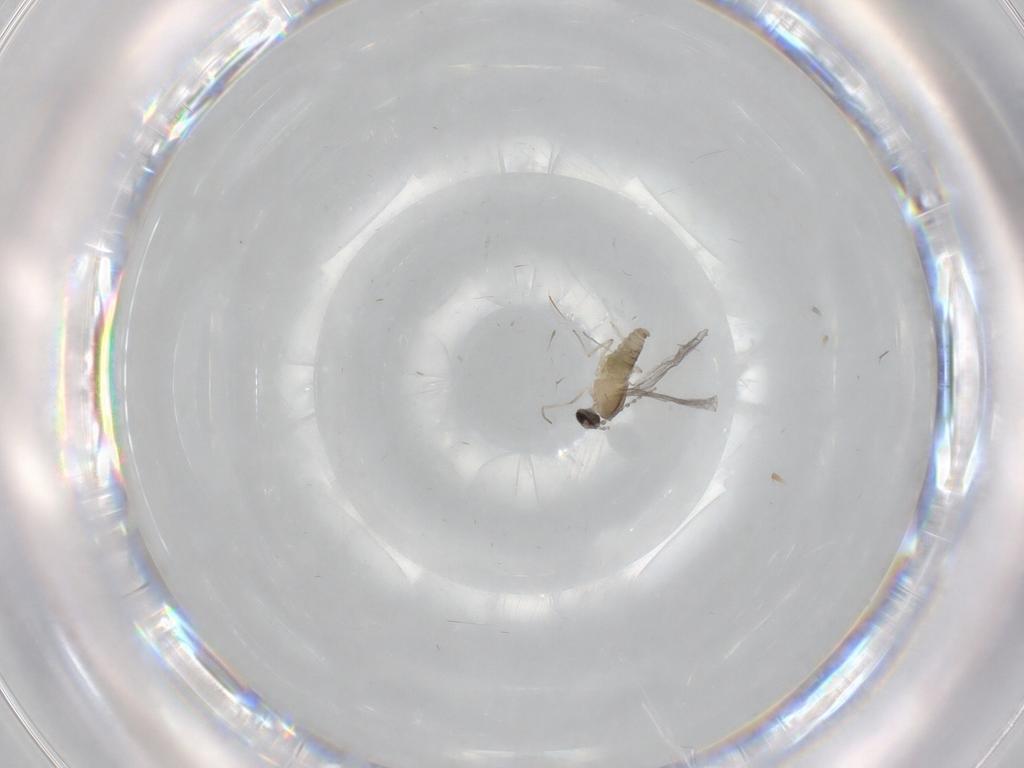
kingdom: Animalia
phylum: Arthropoda
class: Insecta
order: Diptera
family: Cecidomyiidae
